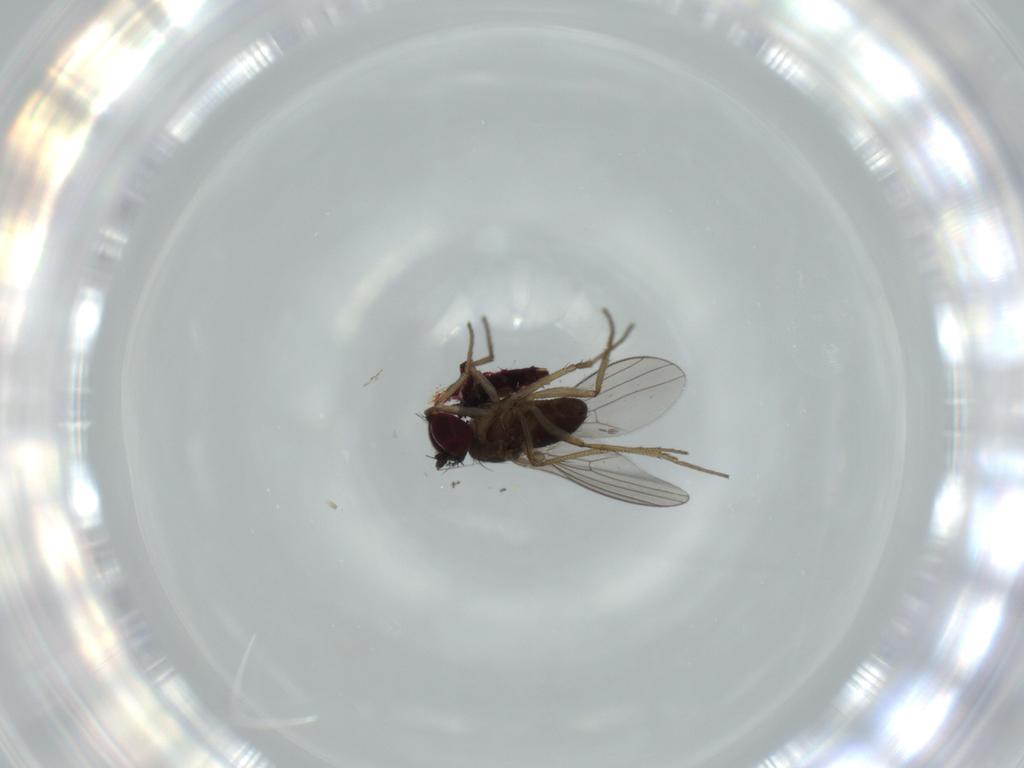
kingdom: Animalia
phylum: Arthropoda
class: Insecta
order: Diptera
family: Dolichopodidae
